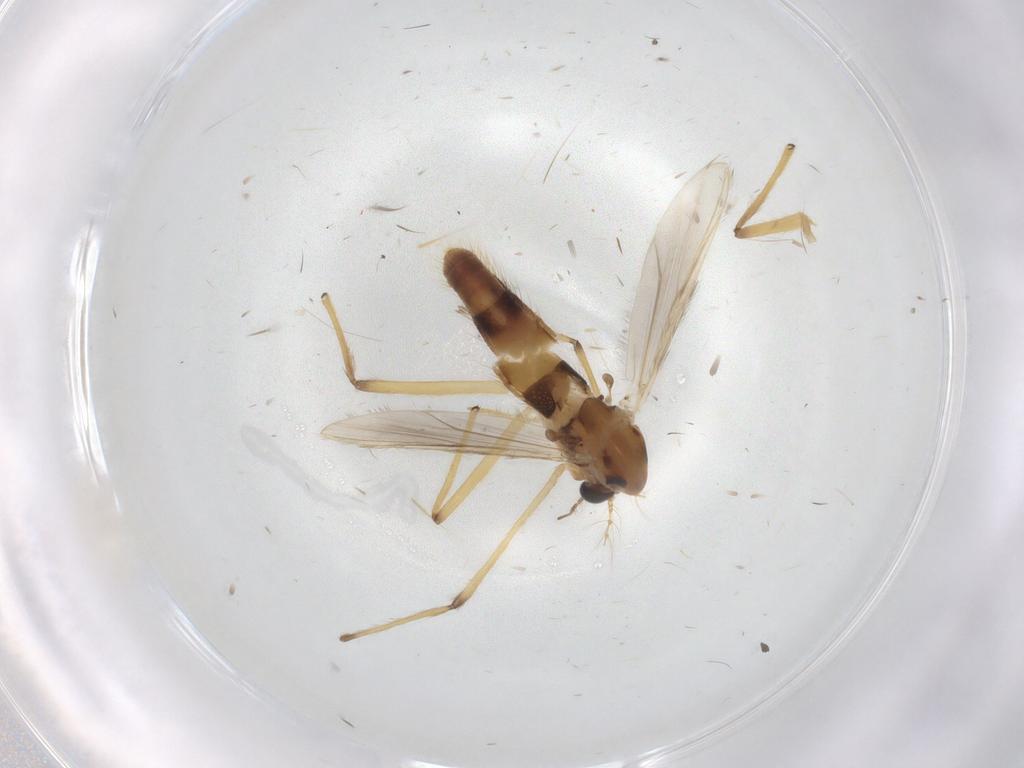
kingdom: Animalia
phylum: Arthropoda
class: Insecta
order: Diptera
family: Chironomidae
